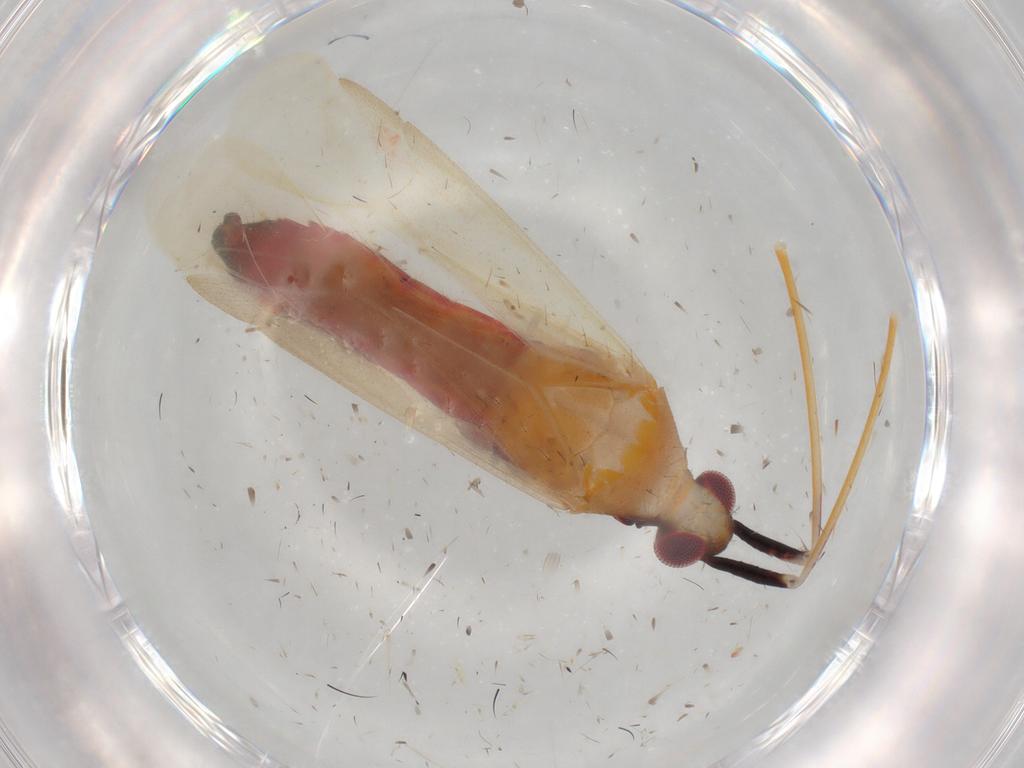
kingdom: Animalia
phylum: Arthropoda
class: Insecta
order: Hemiptera
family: Miridae
